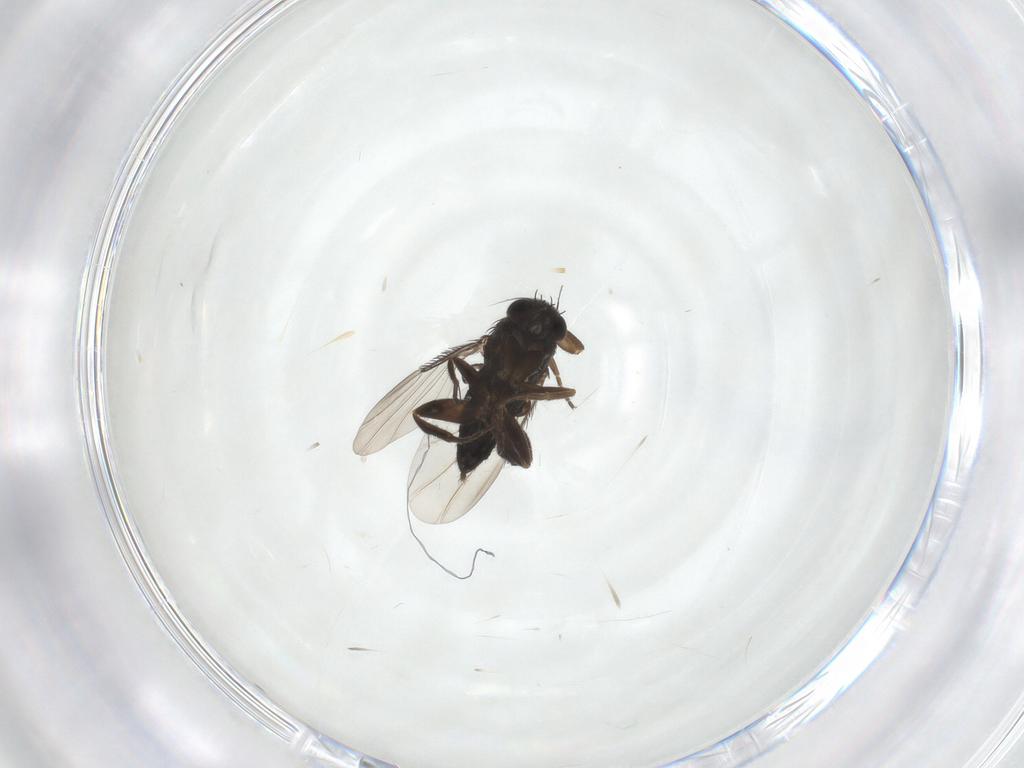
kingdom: Animalia
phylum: Arthropoda
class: Insecta
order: Diptera
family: Phoridae
